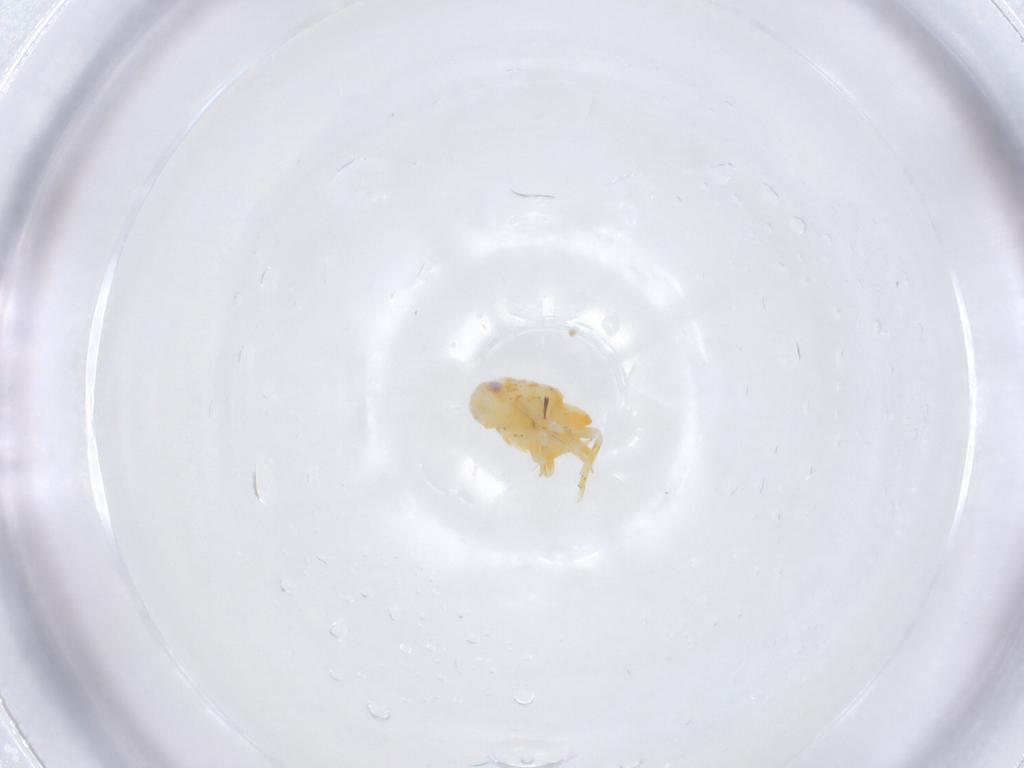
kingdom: Animalia
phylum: Arthropoda
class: Insecta
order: Hemiptera
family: Fulgoroidea_incertae_sedis
